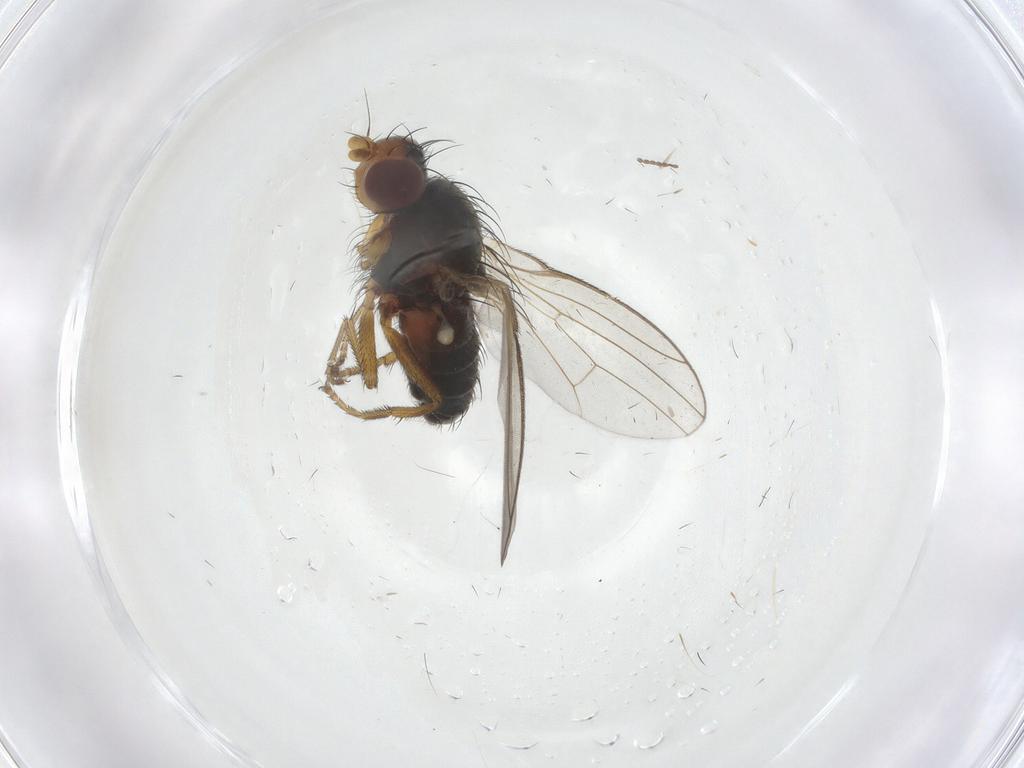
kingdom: Animalia
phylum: Arthropoda
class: Insecta
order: Diptera
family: Heleomyzidae
